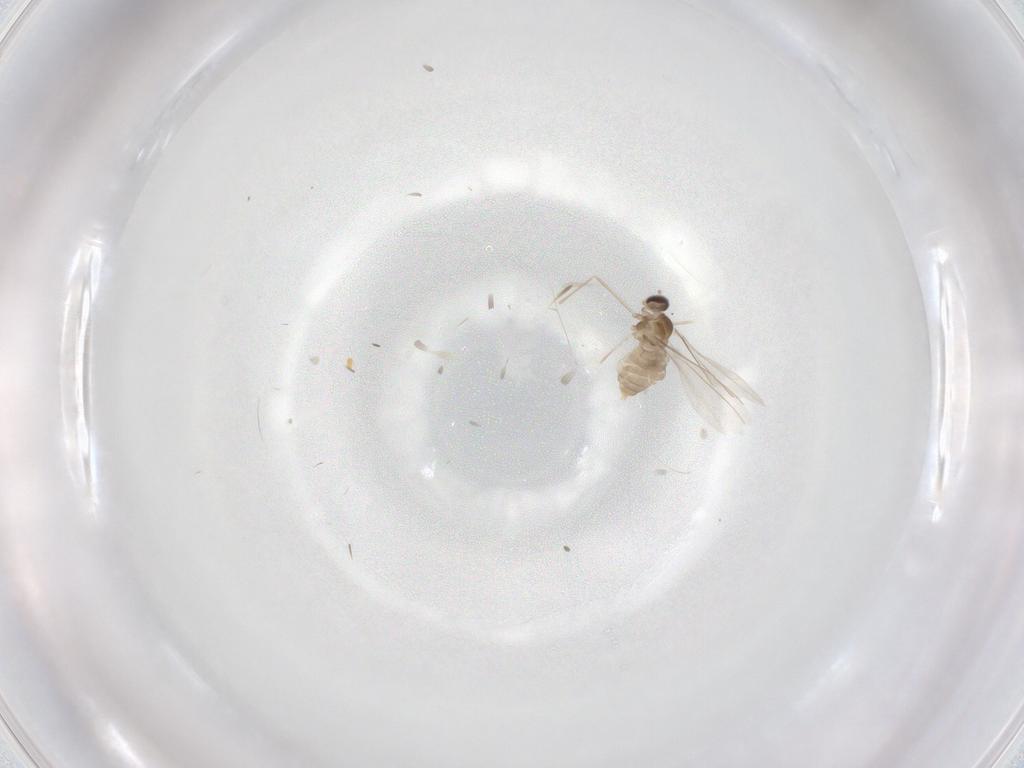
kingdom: Animalia
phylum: Arthropoda
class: Insecta
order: Diptera
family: Cecidomyiidae
